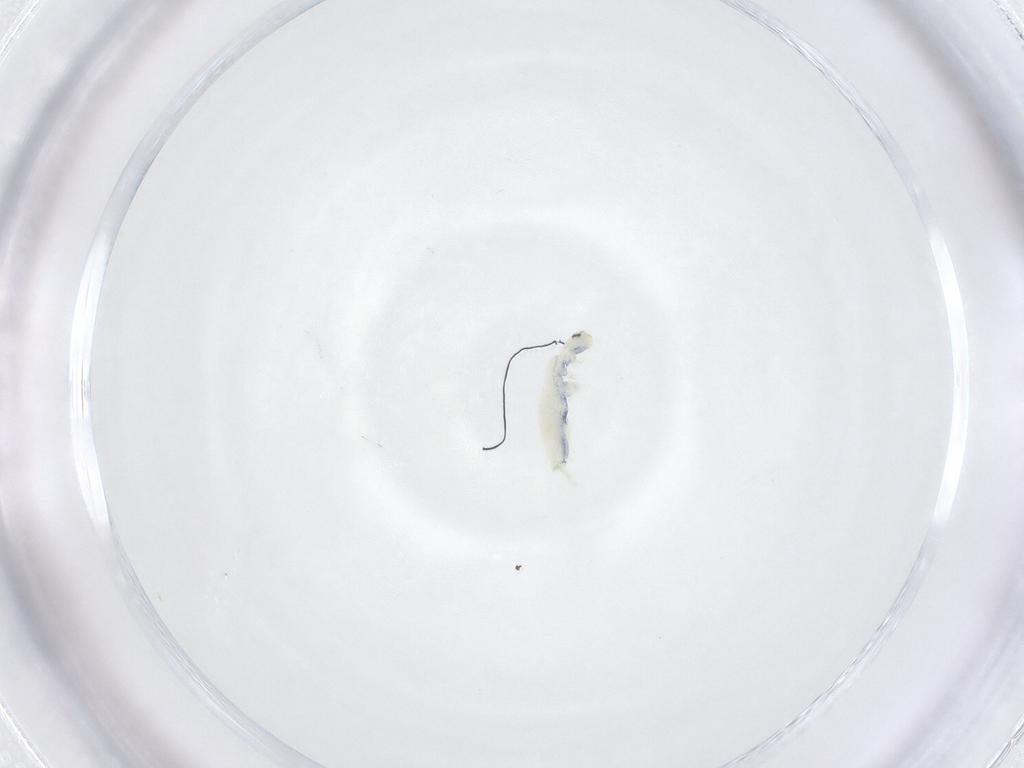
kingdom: Animalia
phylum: Arthropoda
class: Collembola
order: Entomobryomorpha
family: Paronellidae
